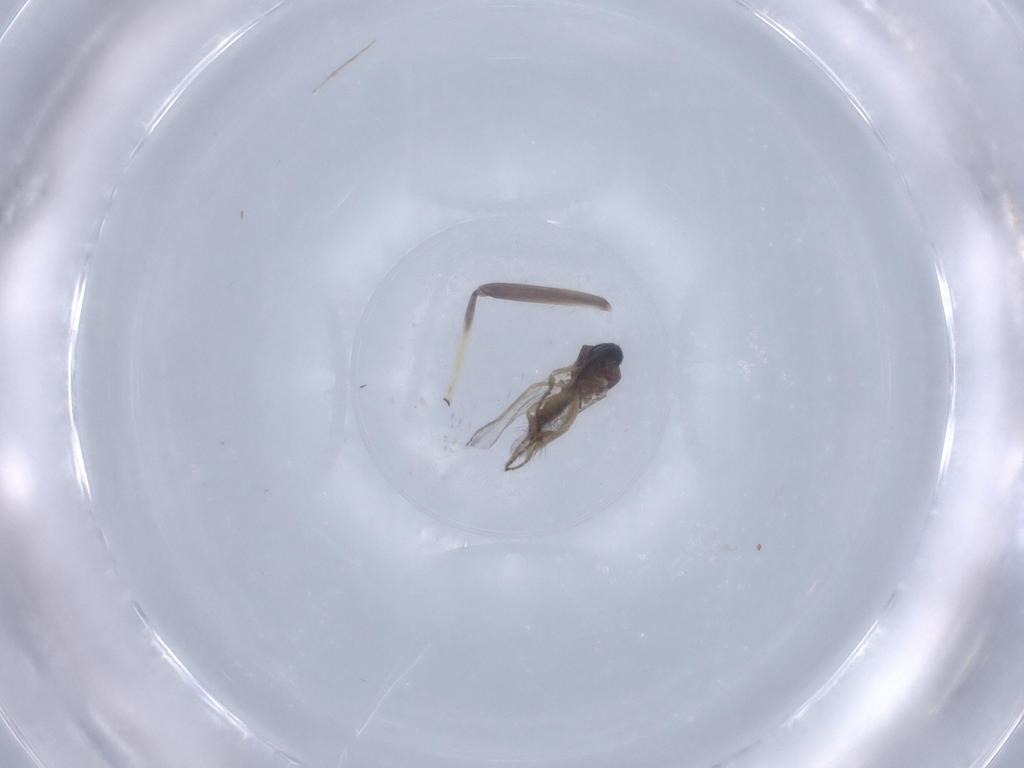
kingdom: Animalia
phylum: Arthropoda
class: Insecta
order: Diptera
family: Chironomidae
